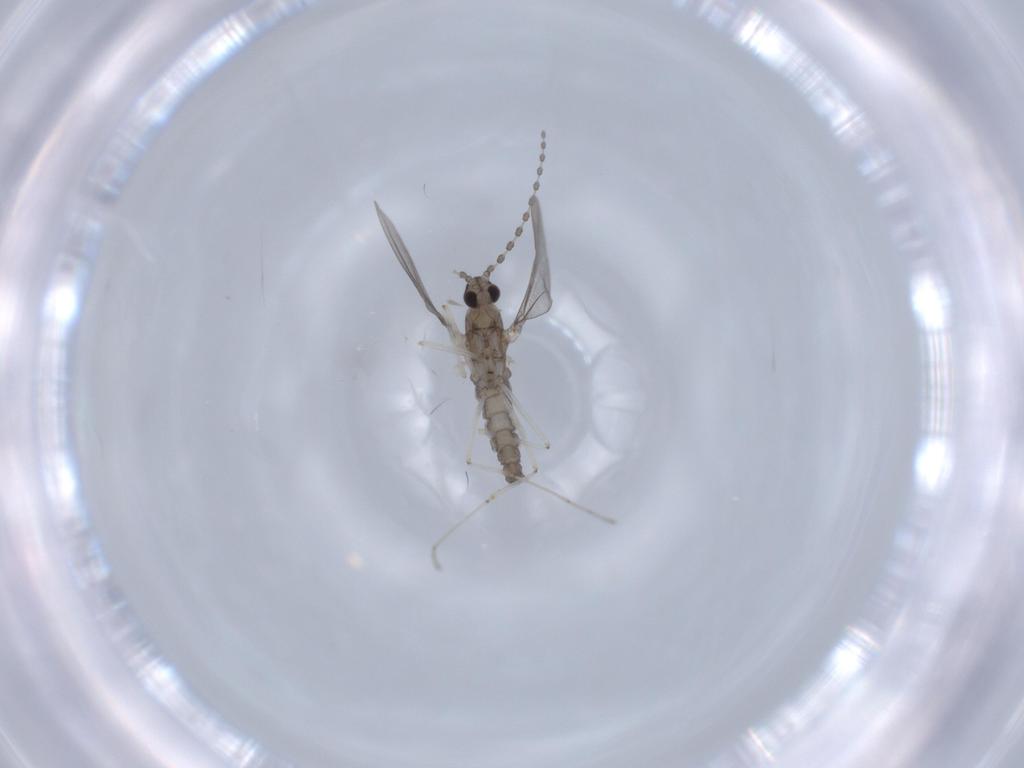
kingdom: Animalia
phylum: Arthropoda
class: Insecta
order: Diptera
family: Cecidomyiidae
